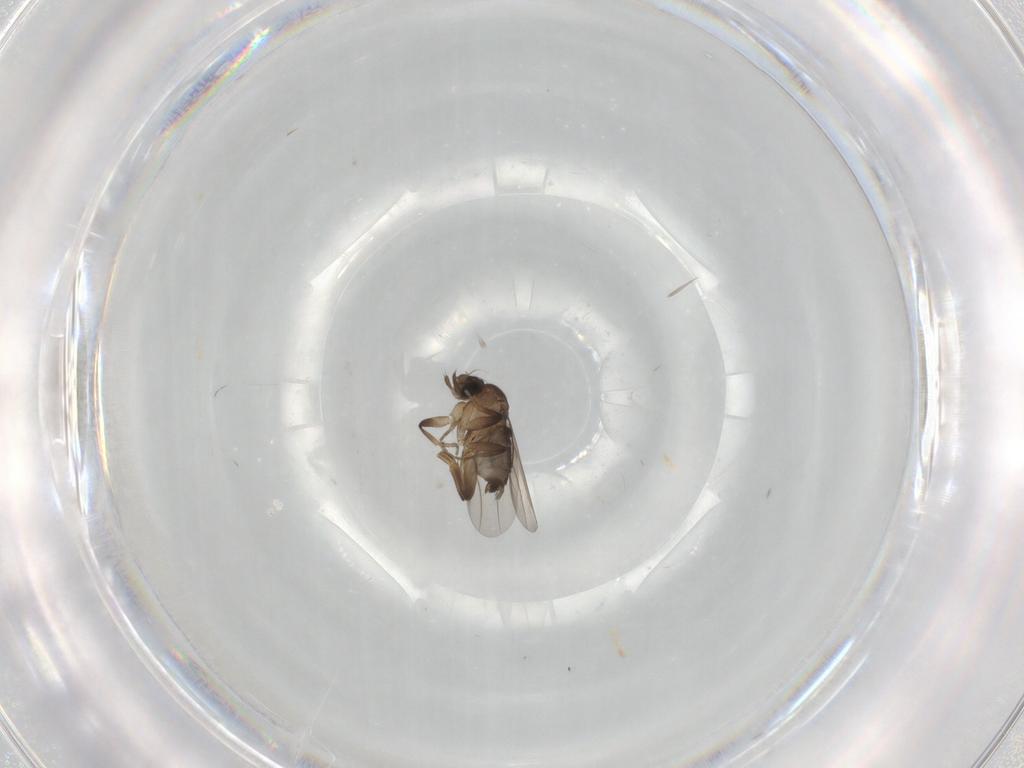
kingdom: Animalia
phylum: Arthropoda
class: Insecta
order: Diptera
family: Phoridae
